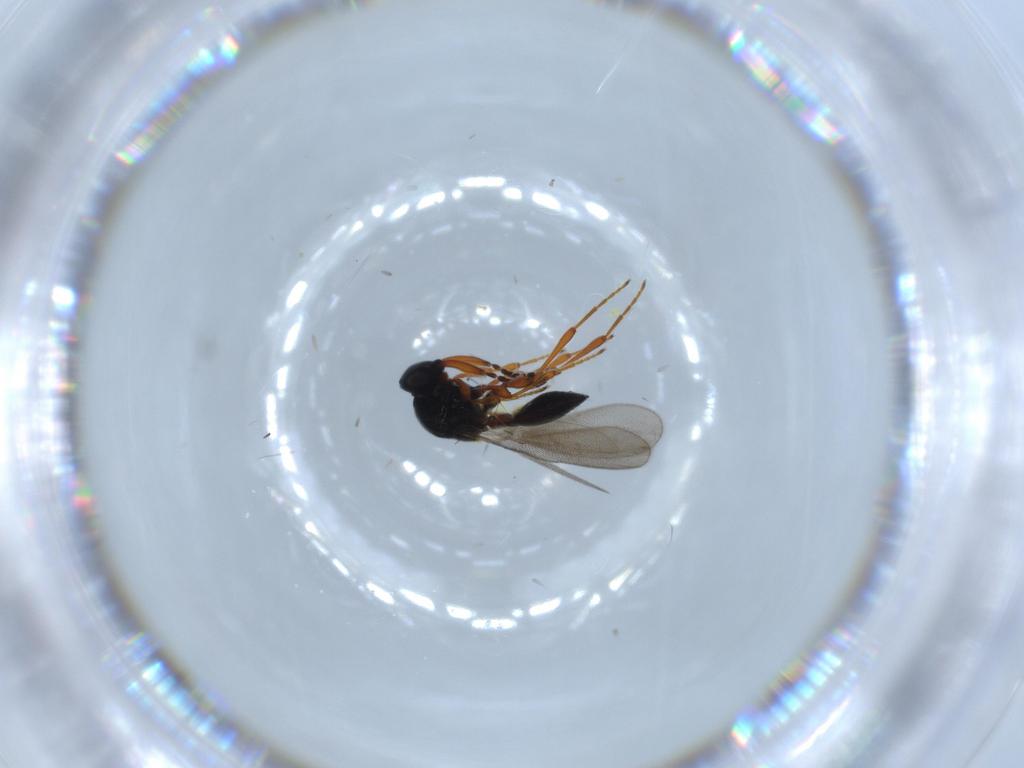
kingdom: Animalia
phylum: Arthropoda
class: Insecta
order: Hymenoptera
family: Platygastridae
